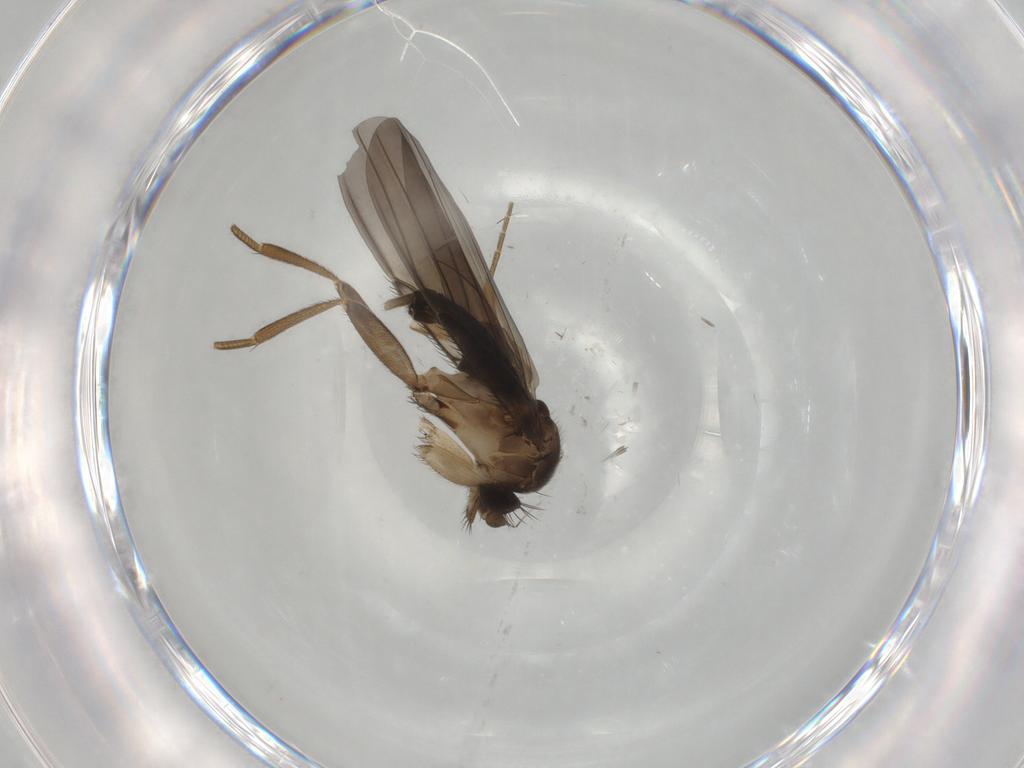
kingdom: Animalia
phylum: Arthropoda
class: Insecta
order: Diptera
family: Phoridae
